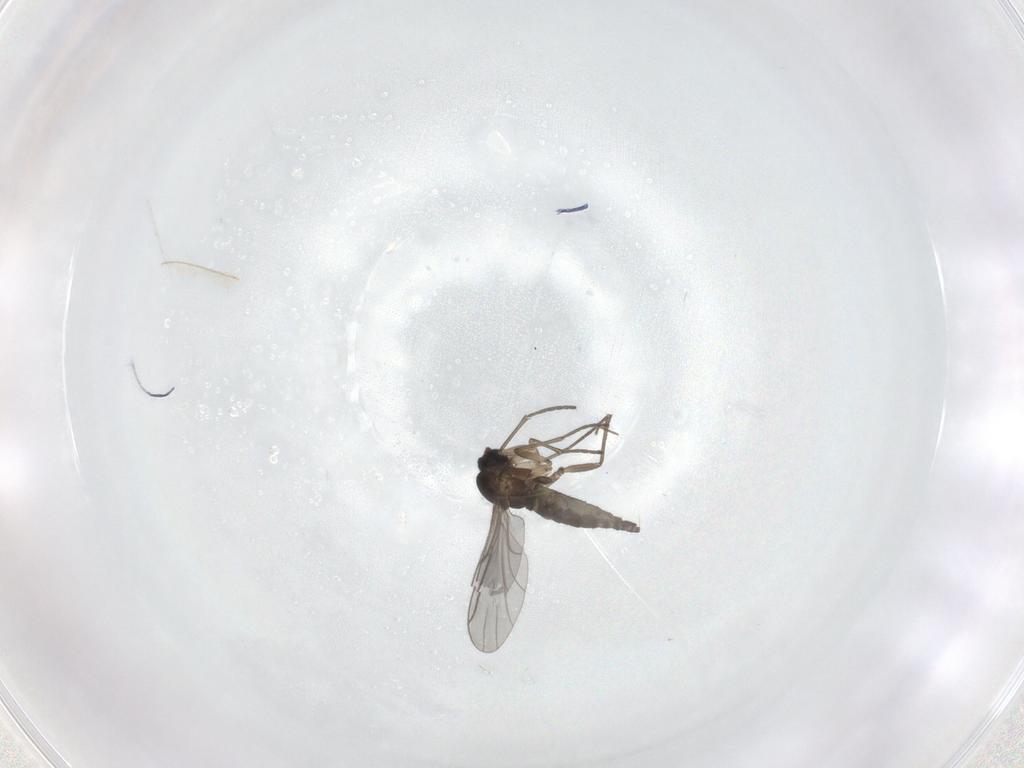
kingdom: Animalia
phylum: Arthropoda
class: Insecta
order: Diptera
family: Sciaridae
